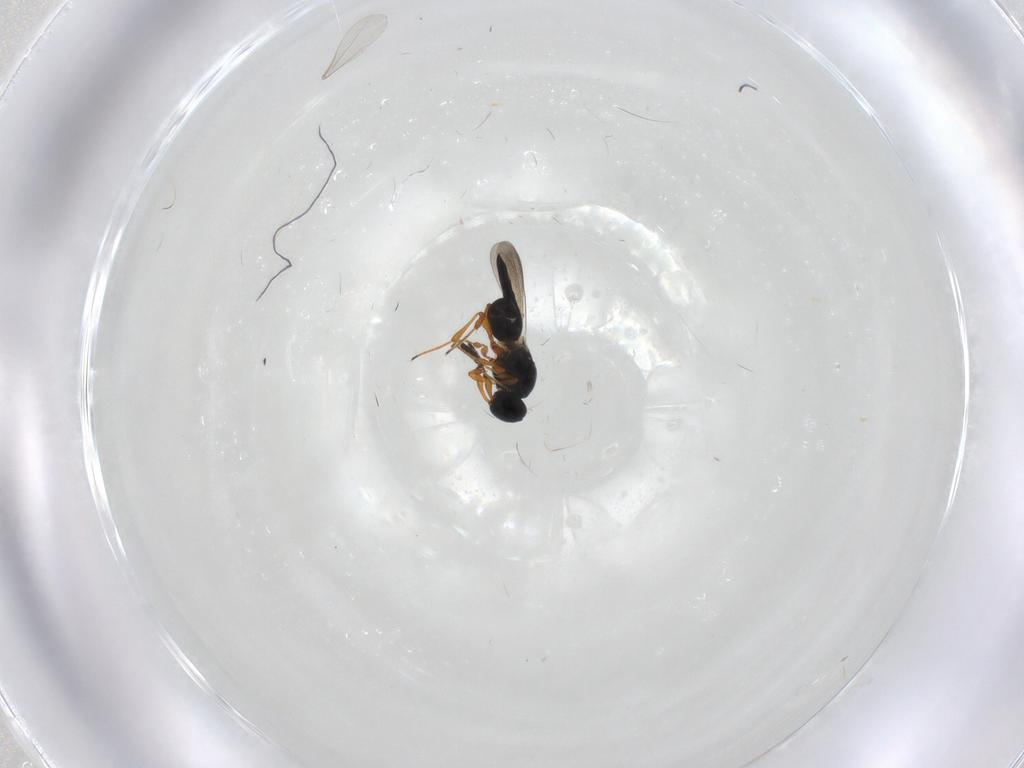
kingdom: Animalia
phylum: Arthropoda
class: Insecta
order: Hymenoptera
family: Platygastridae
